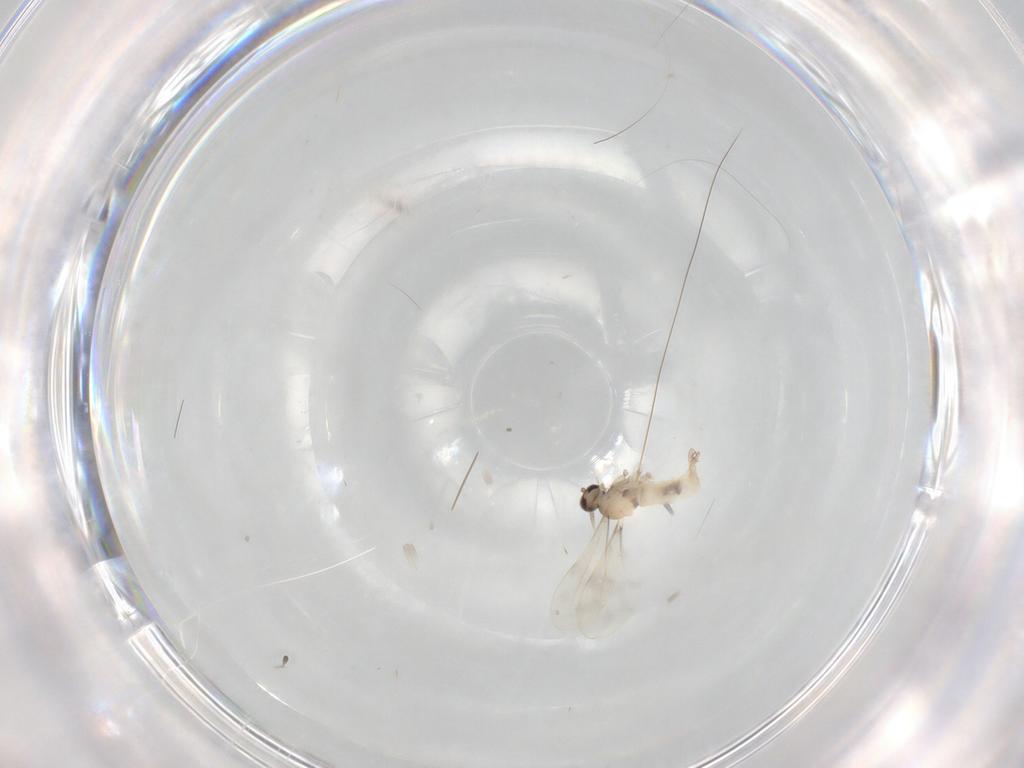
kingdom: Animalia
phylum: Arthropoda
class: Insecta
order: Diptera
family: Cecidomyiidae
